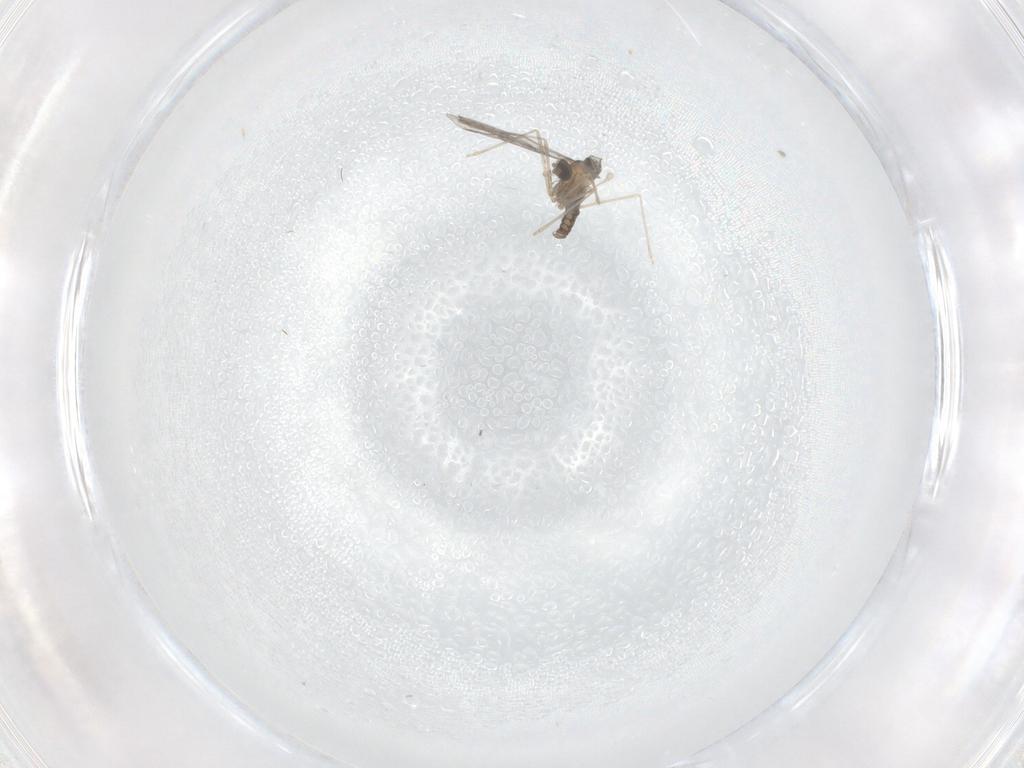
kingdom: Animalia
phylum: Arthropoda
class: Insecta
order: Diptera
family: Cecidomyiidae
